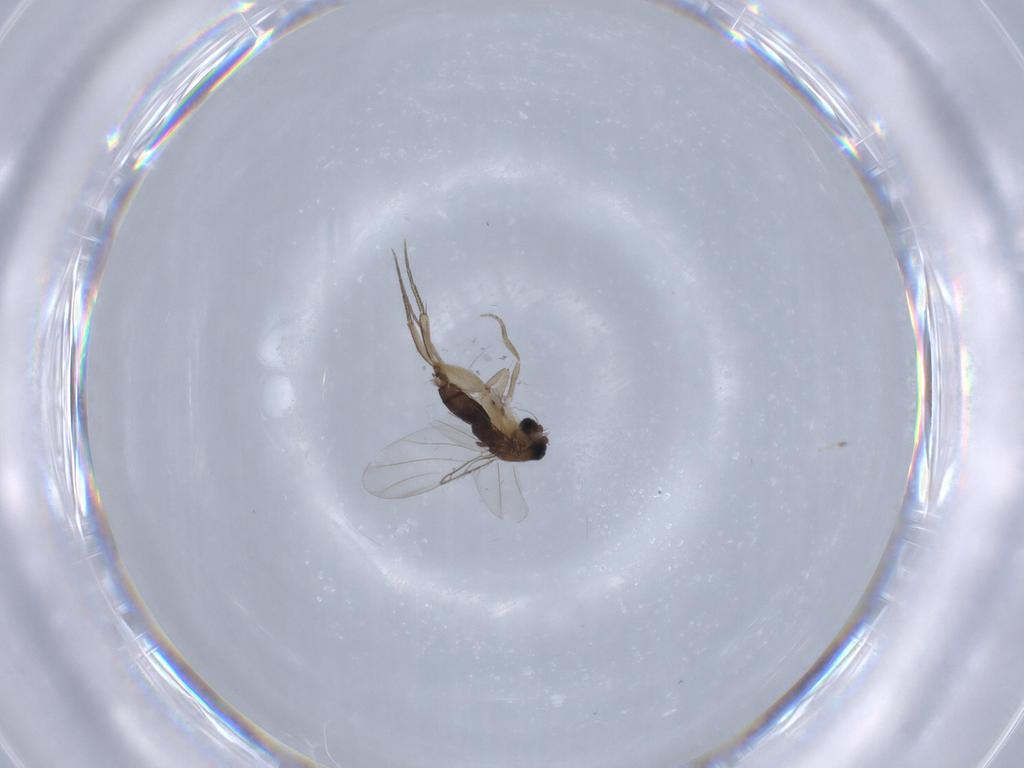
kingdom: Animalia
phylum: Arthropoda
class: Insecta
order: Diptera
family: Phoridae
